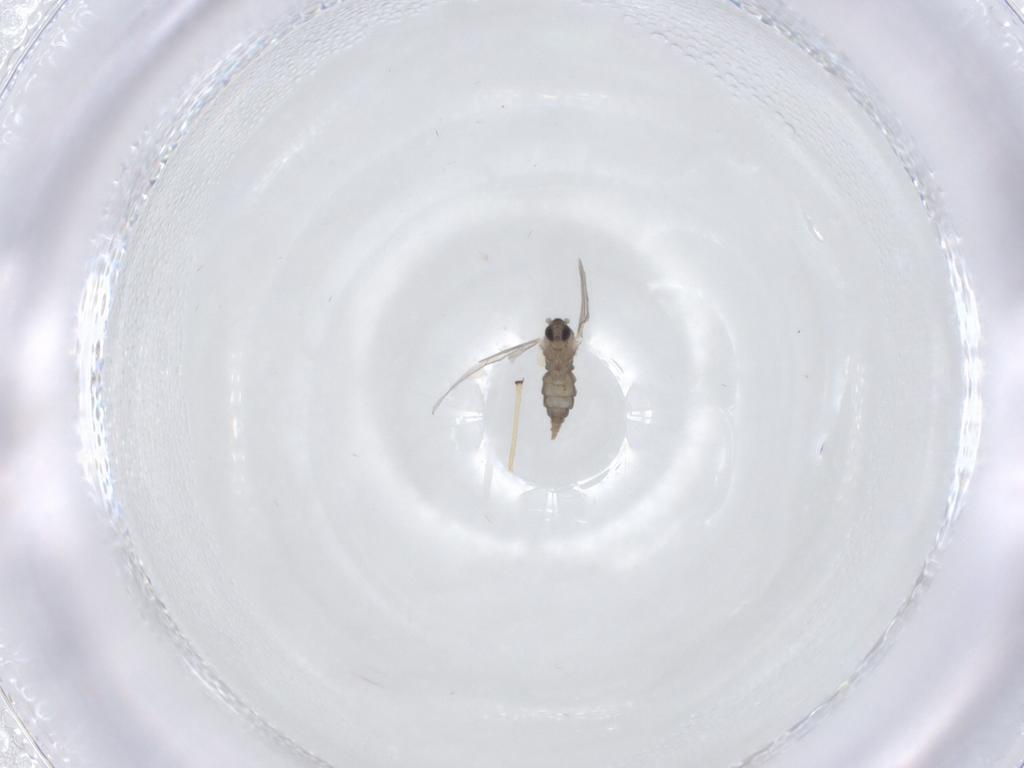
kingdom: Animalia
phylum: Arthropoda
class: Insecta
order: Diptera
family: Chironomidae
